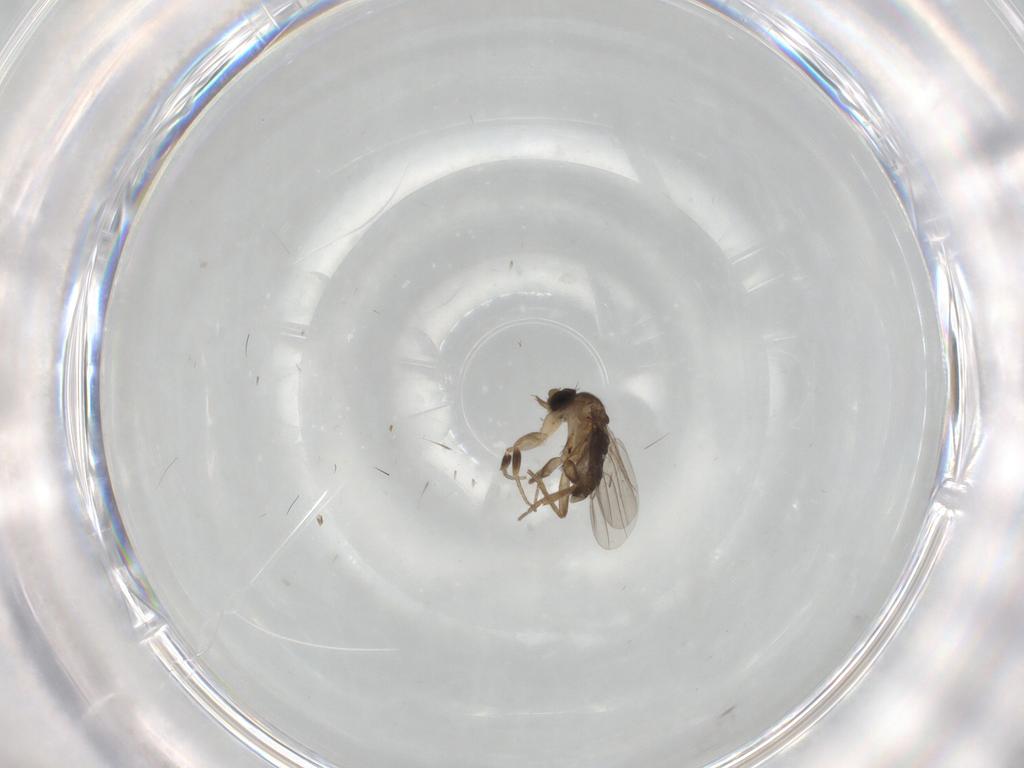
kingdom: Animalia
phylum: Arthropoda
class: Insecta
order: Diptera
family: Phoridae
